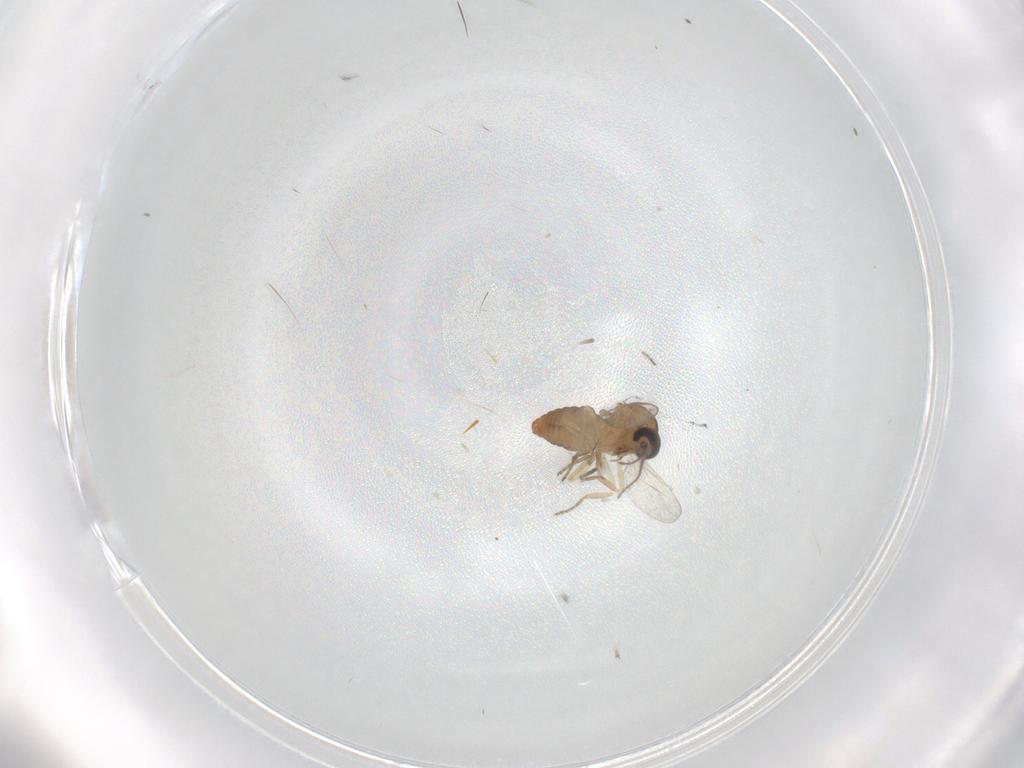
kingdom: Animalia
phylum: Arthropoda
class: Insecta
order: Diptera
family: Ceratopogonidae
